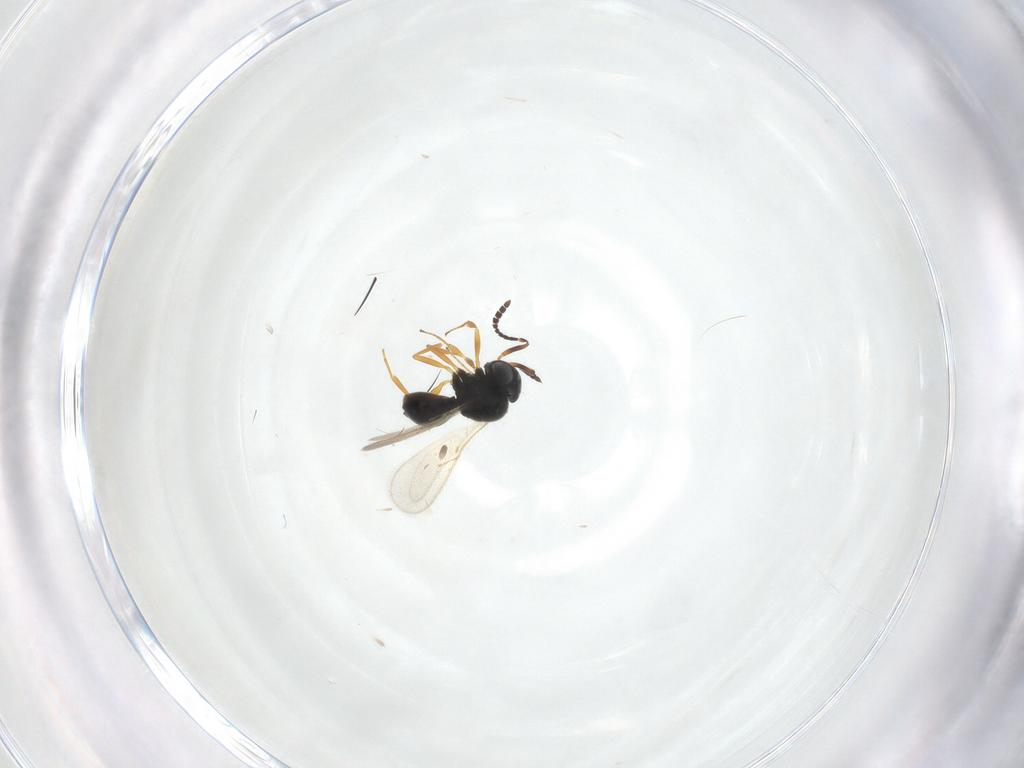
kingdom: Animalia
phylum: Arthropoda
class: Insecta
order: Hymenoptera
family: Scelionidae
